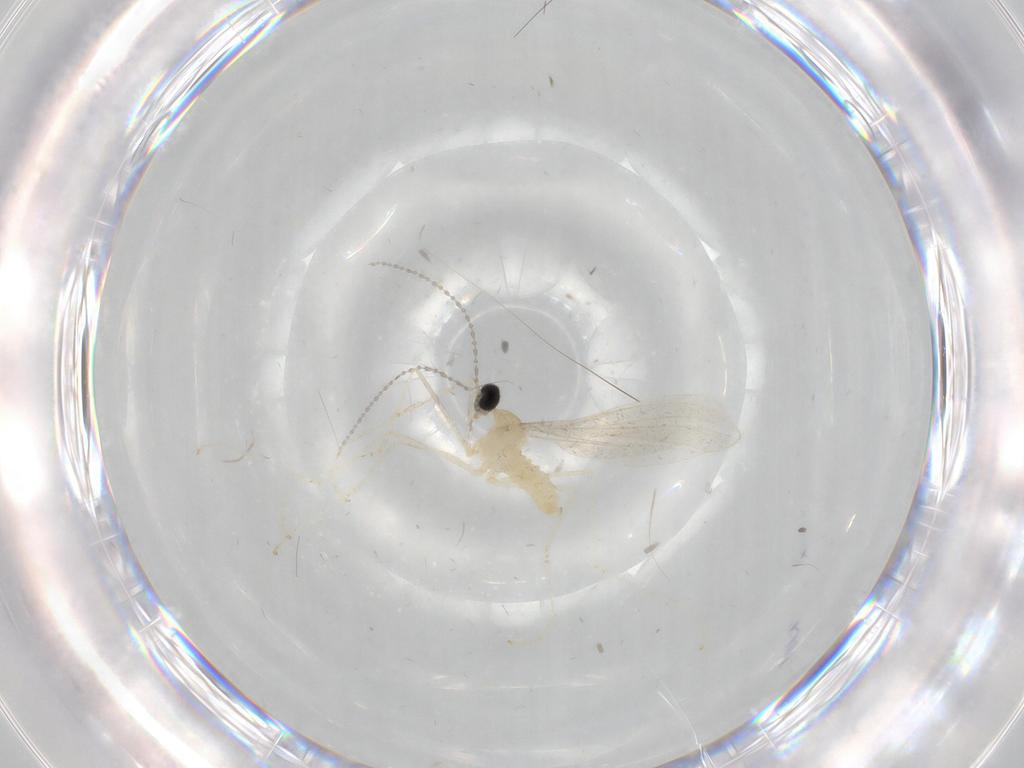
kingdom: Animalia
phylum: Arthropoda
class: Insecta
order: Diptera
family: Cecidomyiidae
